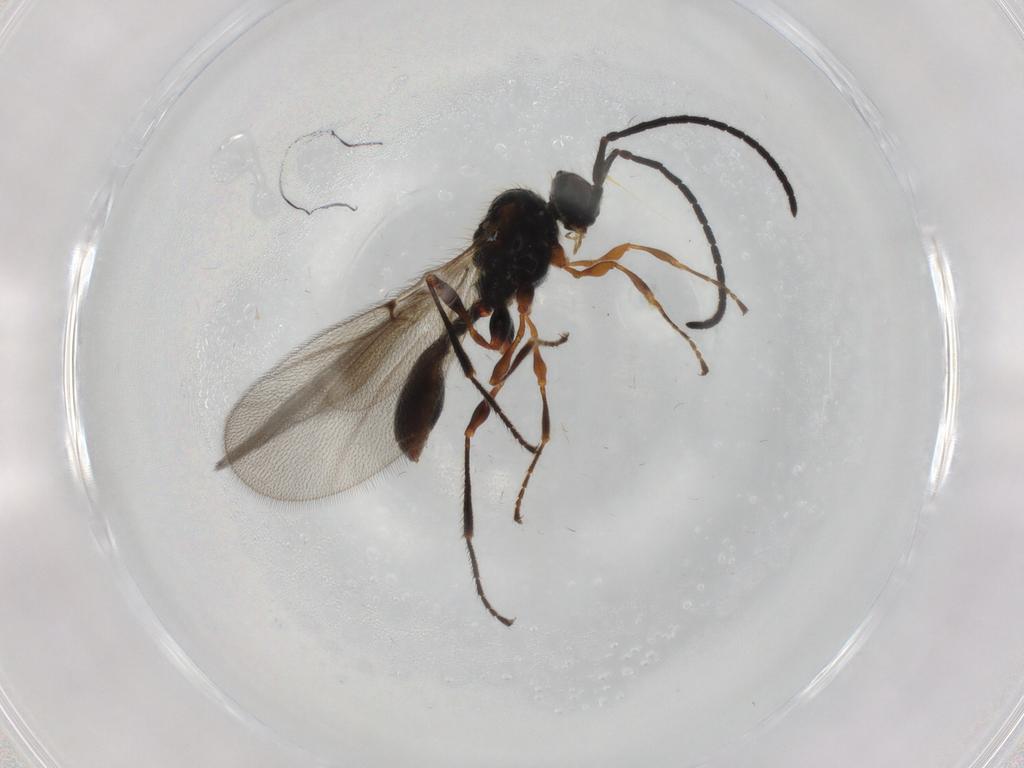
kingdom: Animalia
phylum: Arthropoda
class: Insecta
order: Hymenoptera
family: Diapriidae
